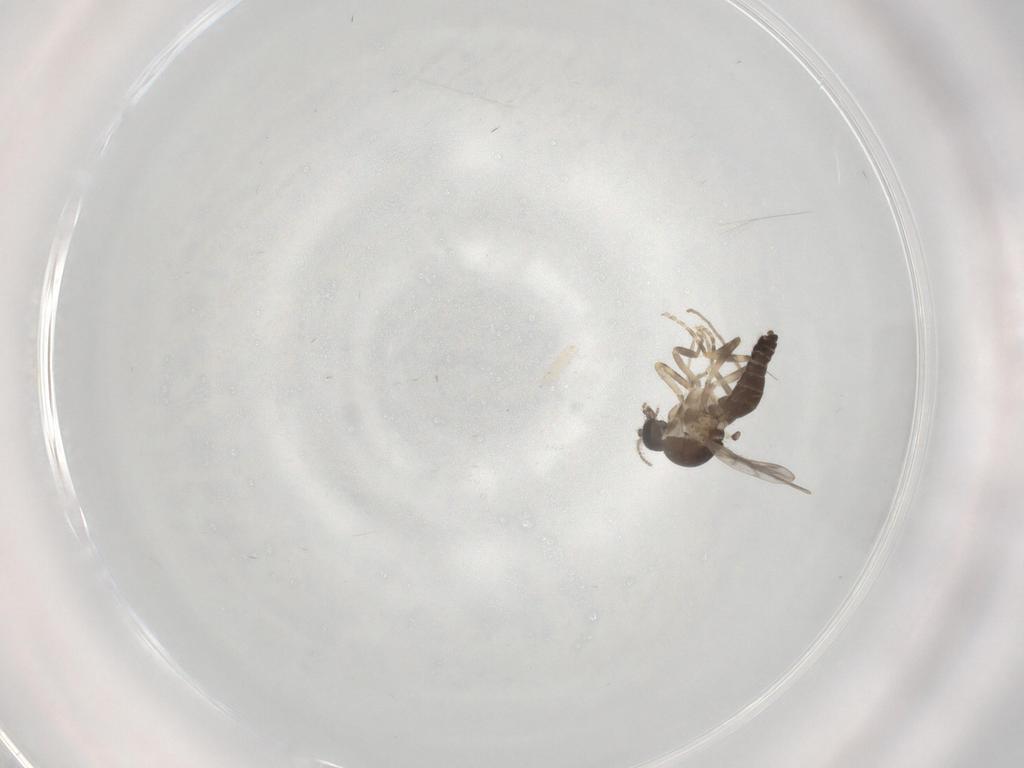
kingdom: Animalia
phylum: Arthropoda
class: Insecta
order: Diptera
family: Ceratopogonidae
